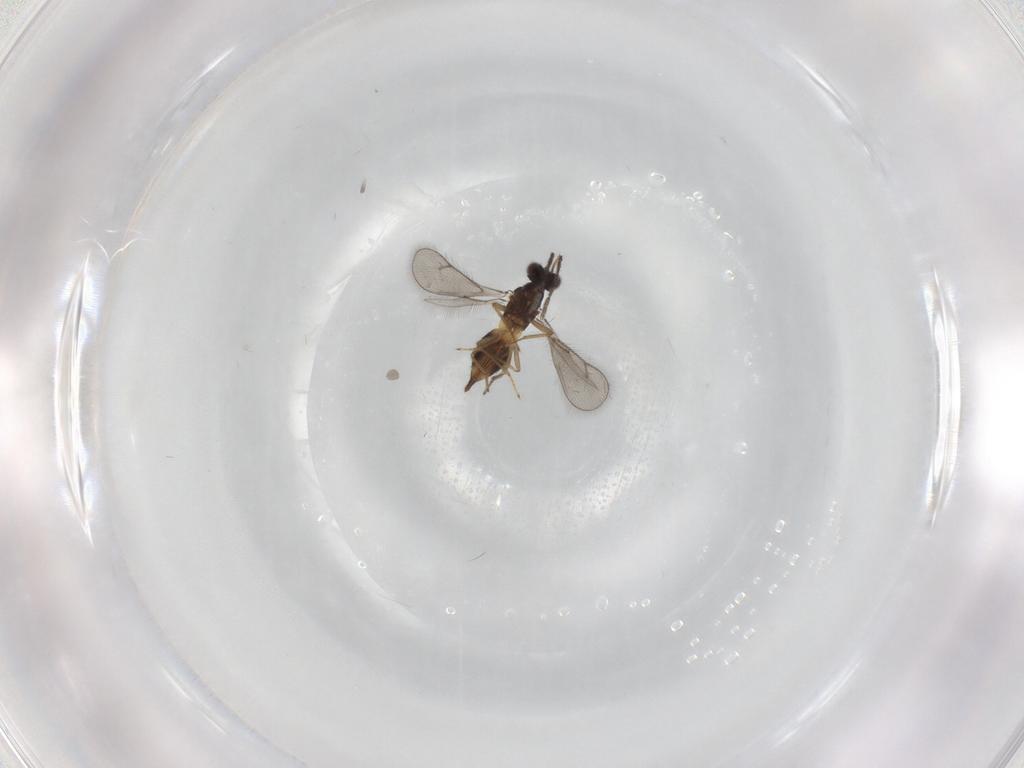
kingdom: Animalia
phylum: Arthropoda
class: Insecta
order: Hymenoptera
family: Eulophidae
